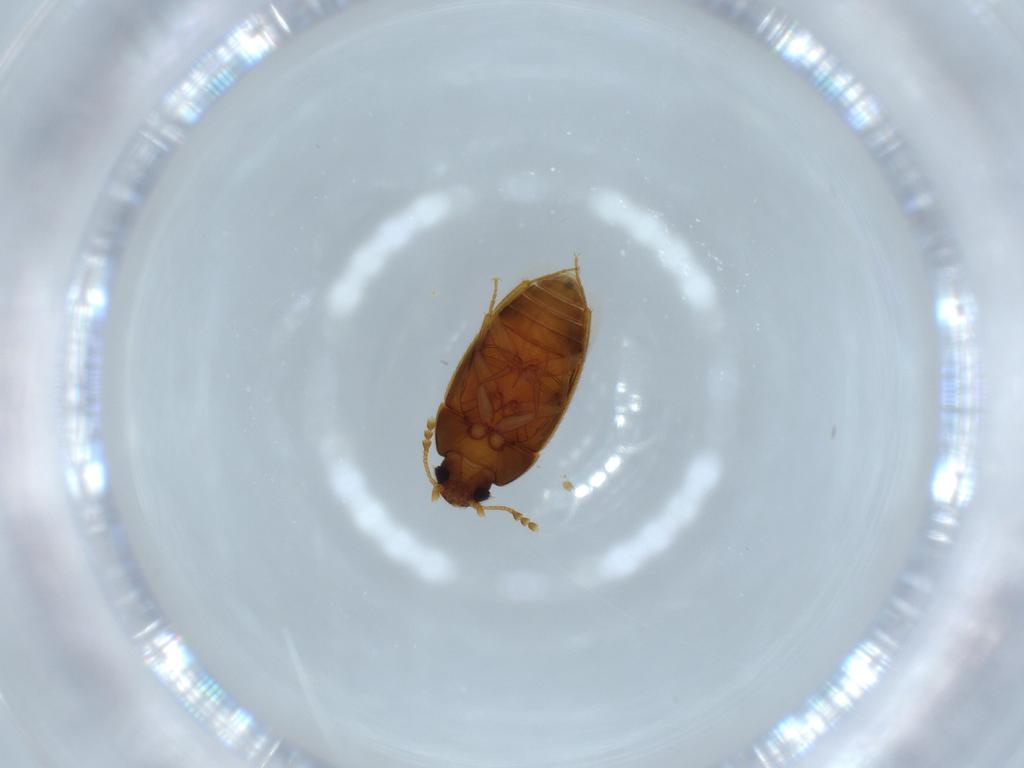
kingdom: Animalia
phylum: Arthropoda
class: Insecta
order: Coleoptera
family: Mycetophagidae
